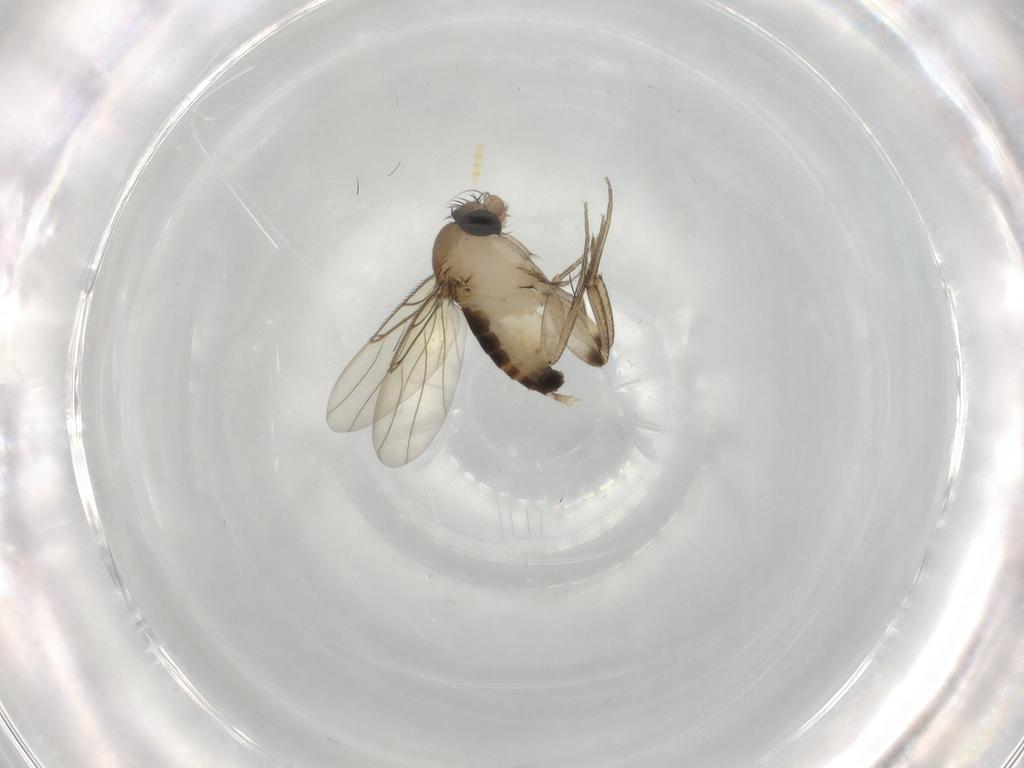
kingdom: Animalia
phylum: Arthropoda
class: Insecta
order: Diptera
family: Phoridae
